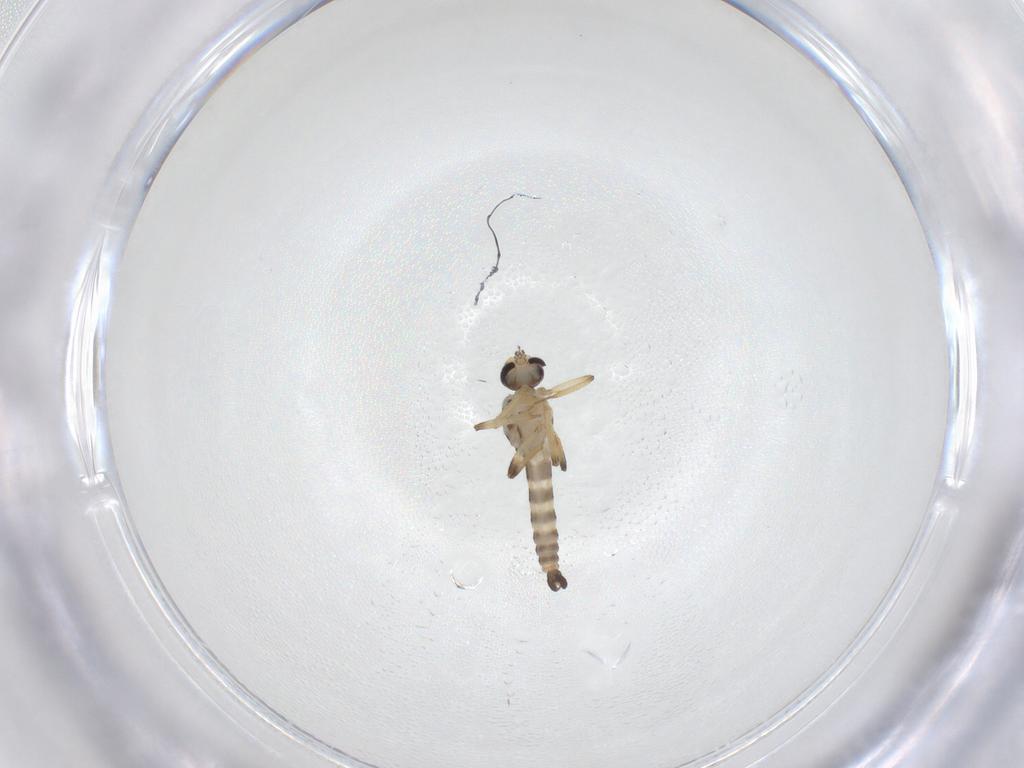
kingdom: Animalia
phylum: Arthropoda
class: Insecta
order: Diptera
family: Ceratopogonidae
